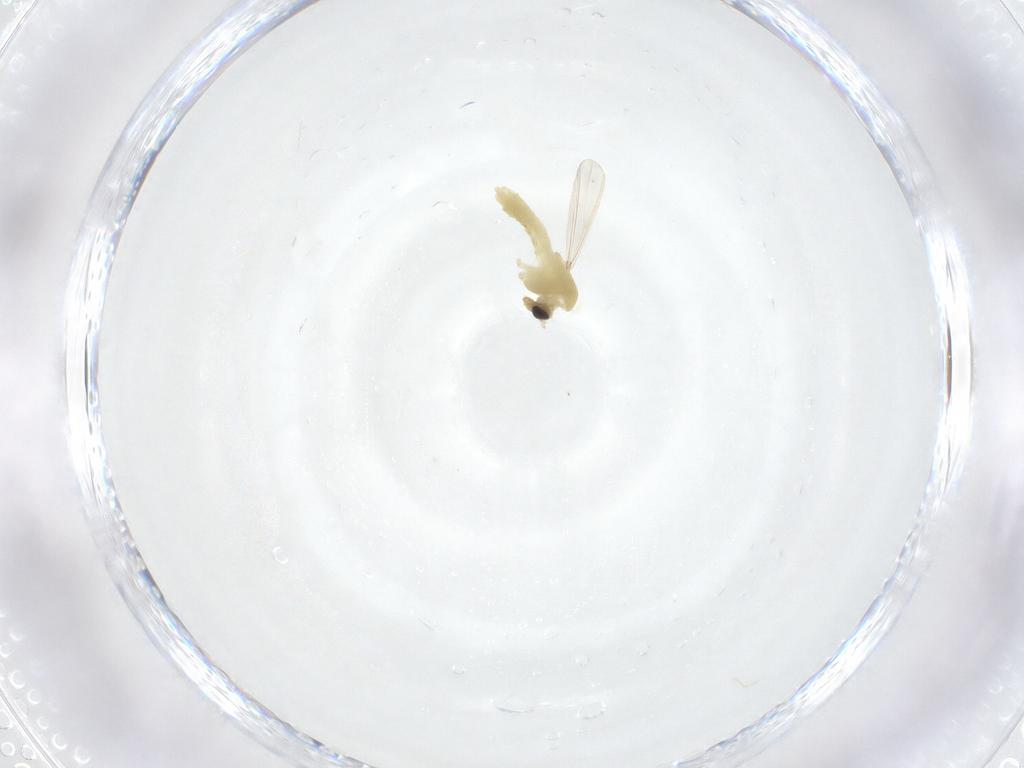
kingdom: Animalia
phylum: Arthropoda
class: Insecta
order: Diptera
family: Chironomidae
